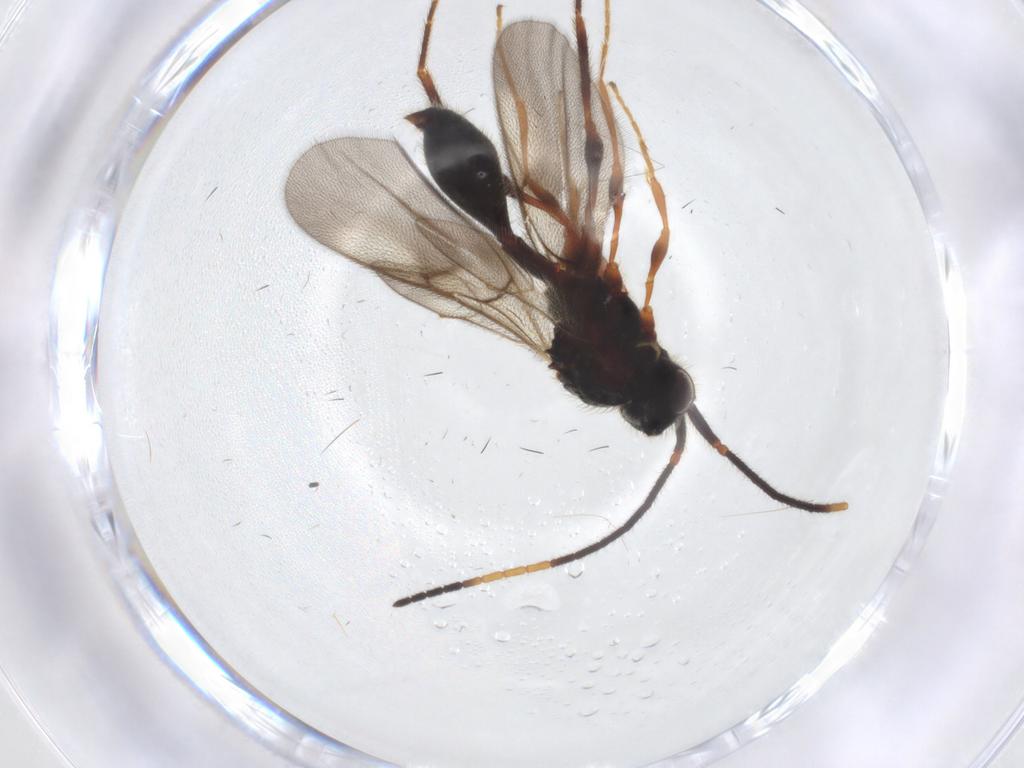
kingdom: Animalia
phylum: Arthropoda
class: Insecta
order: Hymenoptera
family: Diapriidae
